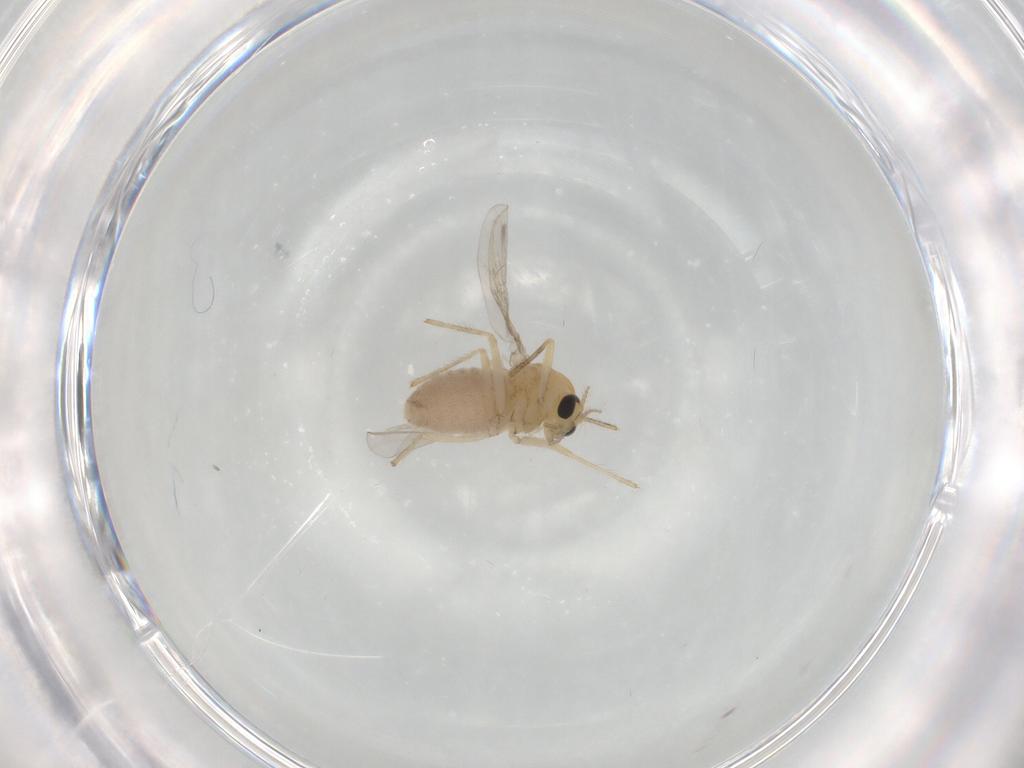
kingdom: Animalia
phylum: Arthropoda
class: Insecta
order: Diptera
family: Chironomidae
